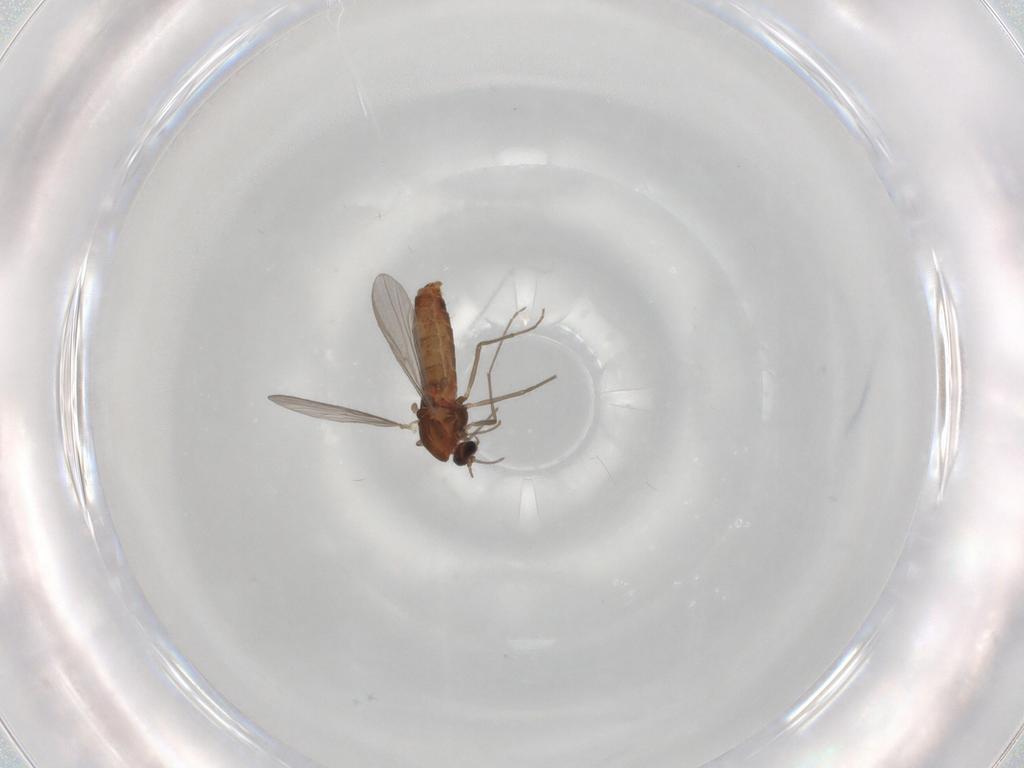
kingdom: Animalia
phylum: Arthropoda
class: Insecta
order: Diptera
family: Chironomidae
